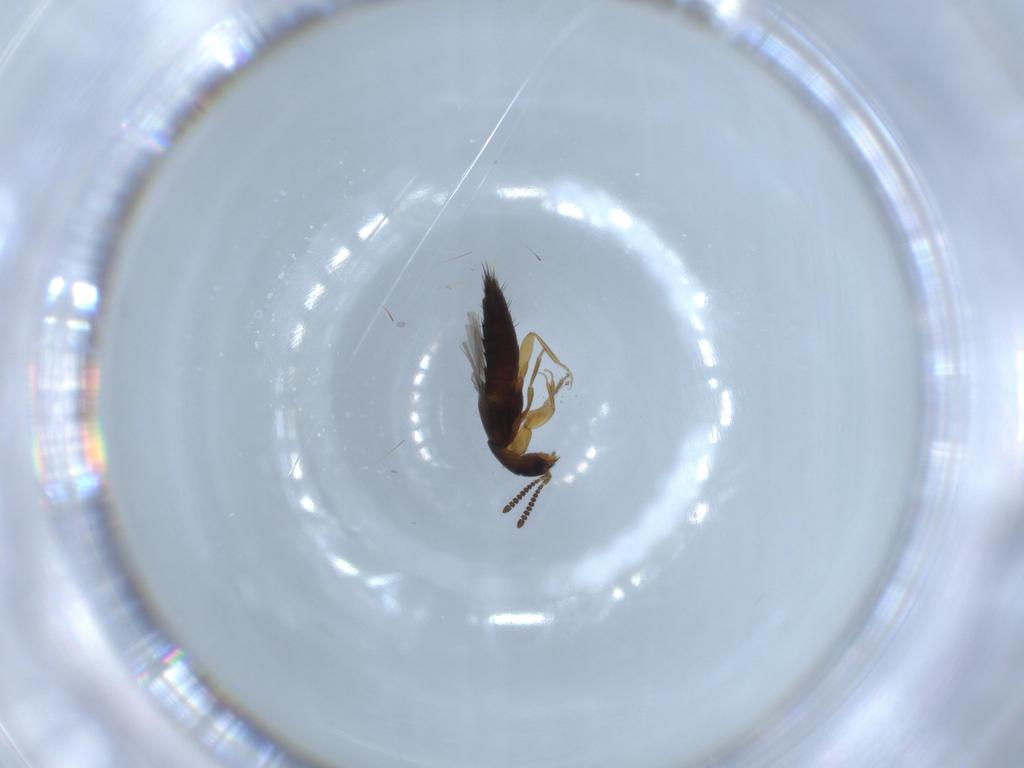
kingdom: Animalia
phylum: Arthropoda
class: Insecta
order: Coleoptera
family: Staphylinidae
